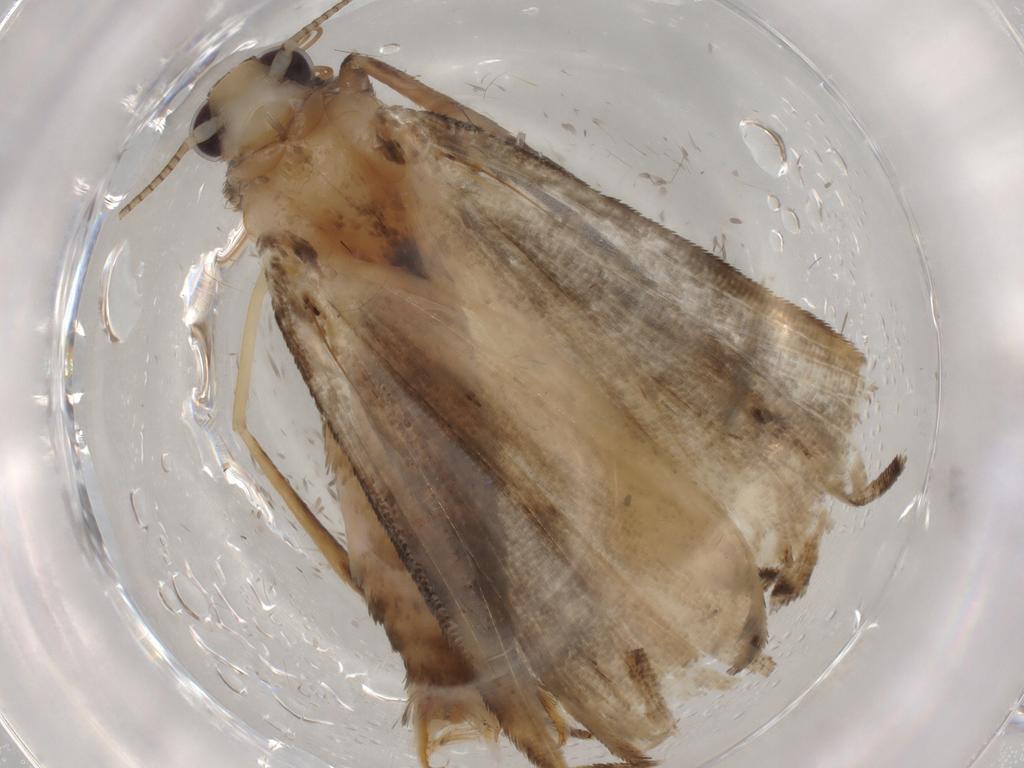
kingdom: Animalia
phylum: Arthropoda
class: Insecta
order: Lepidoptera
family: Noctuidae
